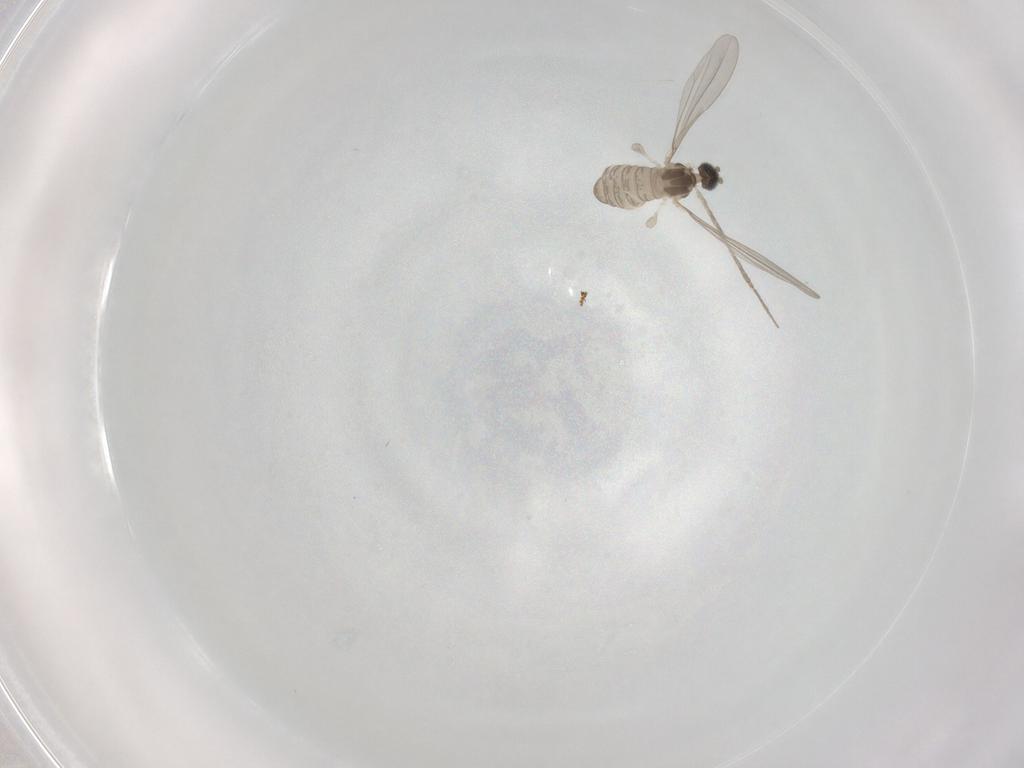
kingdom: Animalia
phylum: Arthropoda
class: Insecta
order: Diptera
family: Cecidomyiidae
